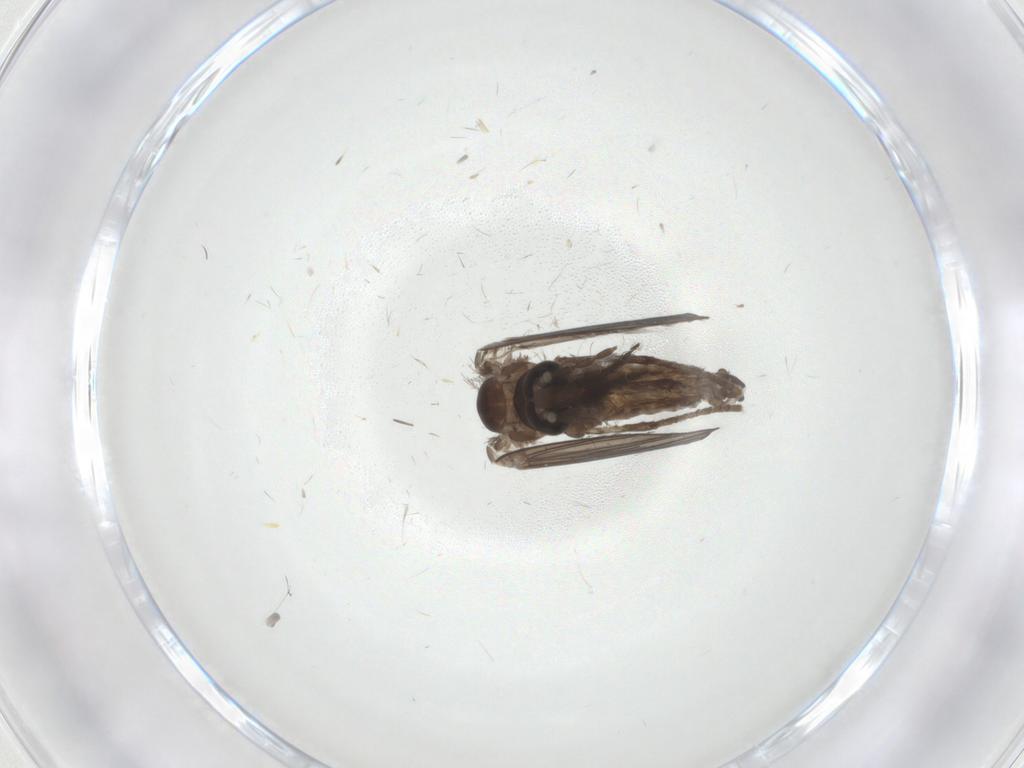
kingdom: Animalia
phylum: Arthropoda
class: Insecta
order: Diptera
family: Psychodidae
